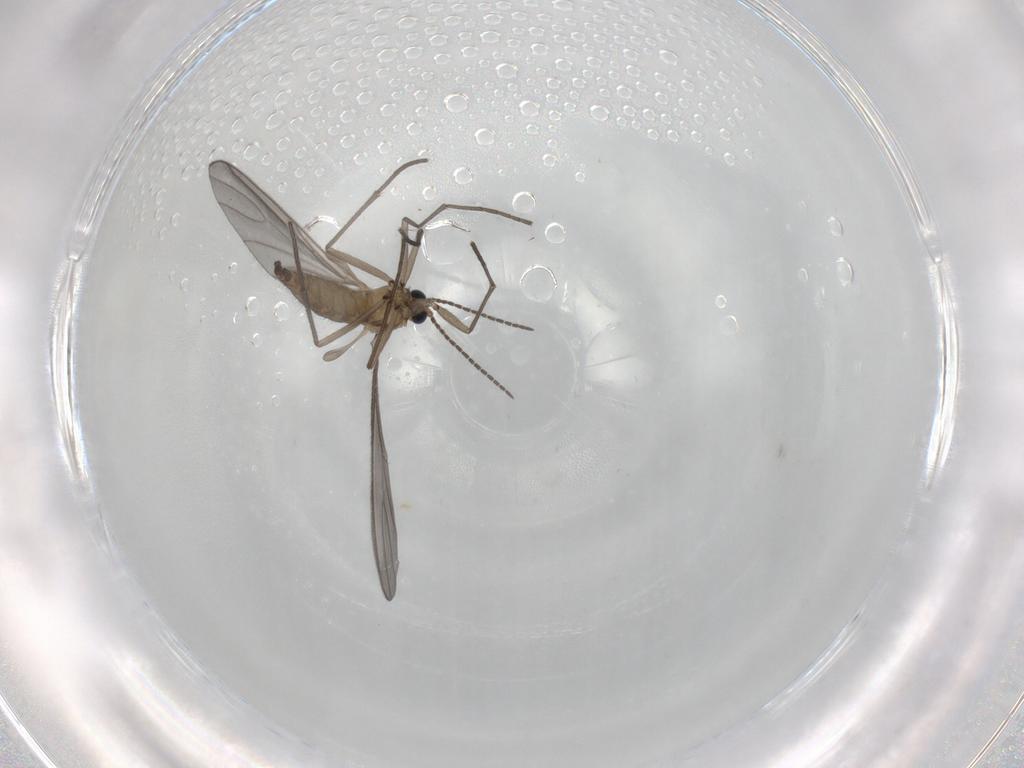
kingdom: Animalia
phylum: Arthropoda
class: Insecta
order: Diptera
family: Sciaridae
